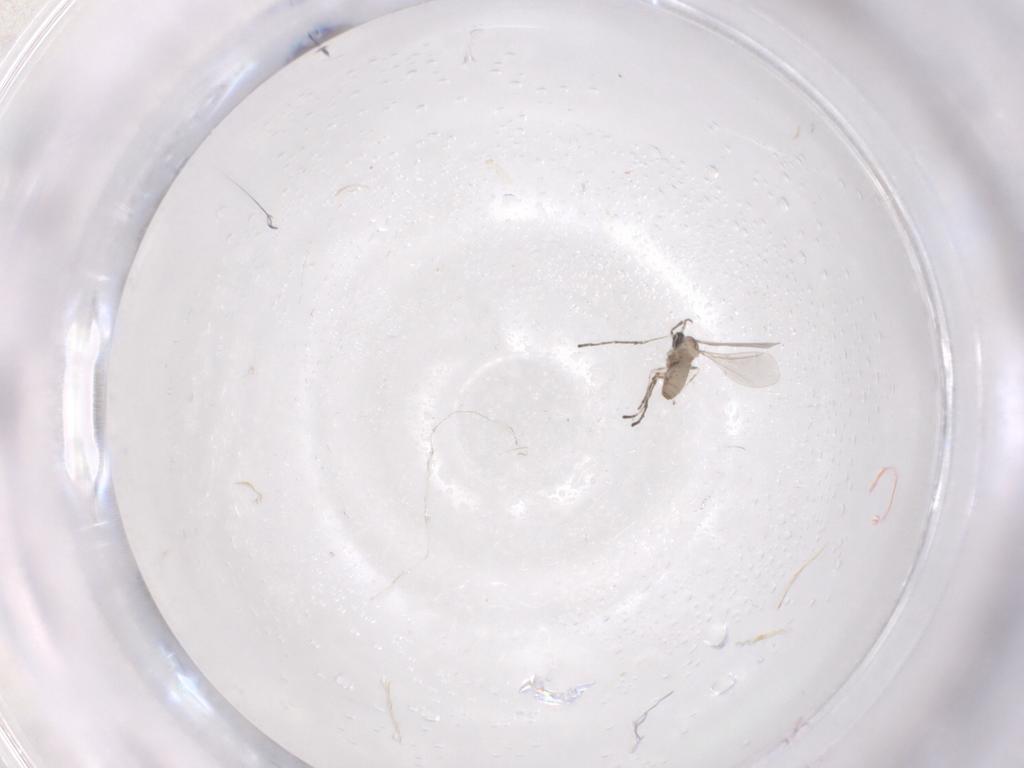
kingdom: Animalia
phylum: Arthropoda
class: Insecta
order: Diptera
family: Cecidomyiidae
